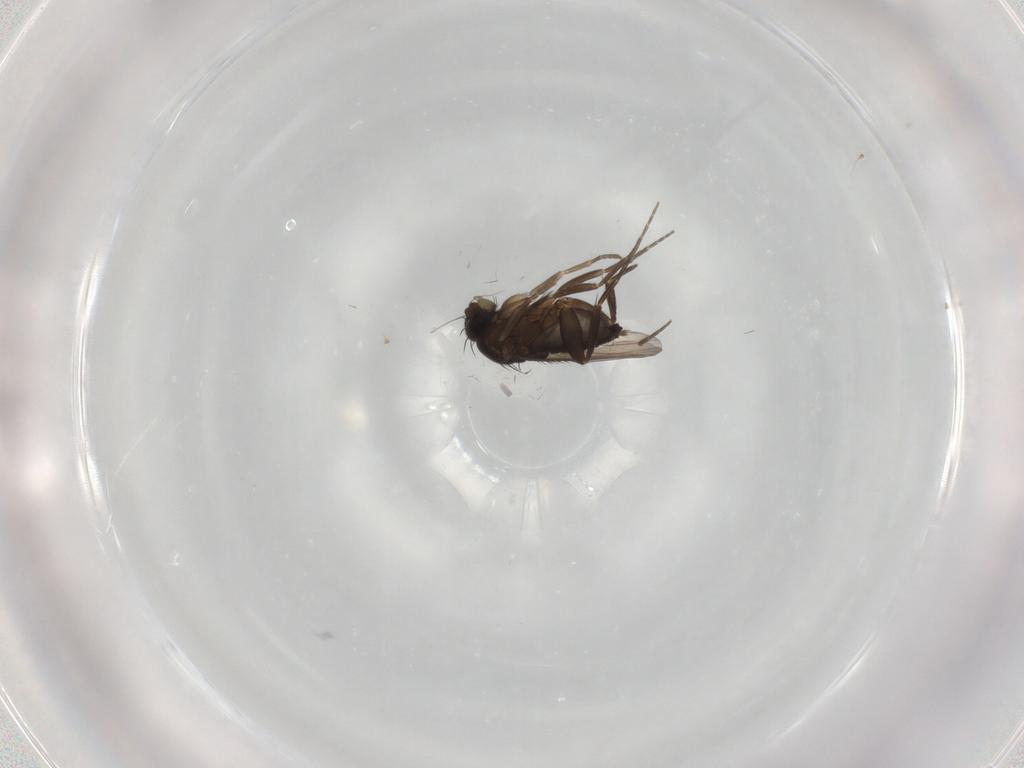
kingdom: Animalia
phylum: Arthropoda
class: Insecta
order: Diptera
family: Phoridae
